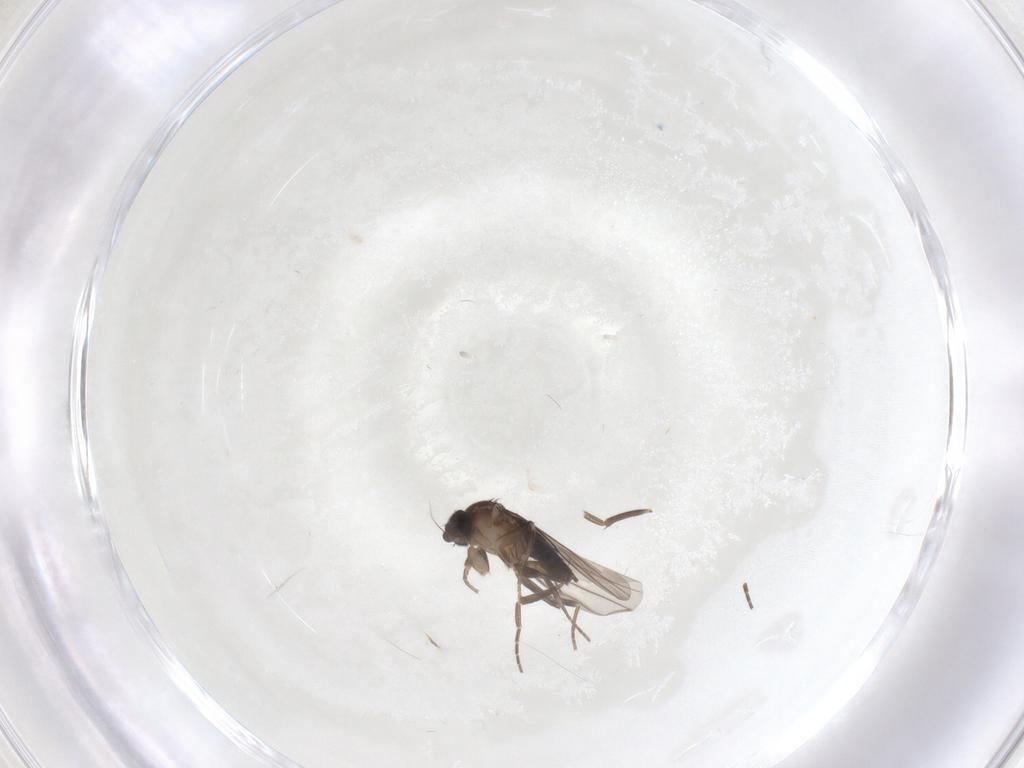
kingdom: Animalia
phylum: Arthropoda
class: Insecta
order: Diptera
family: Phoridae
